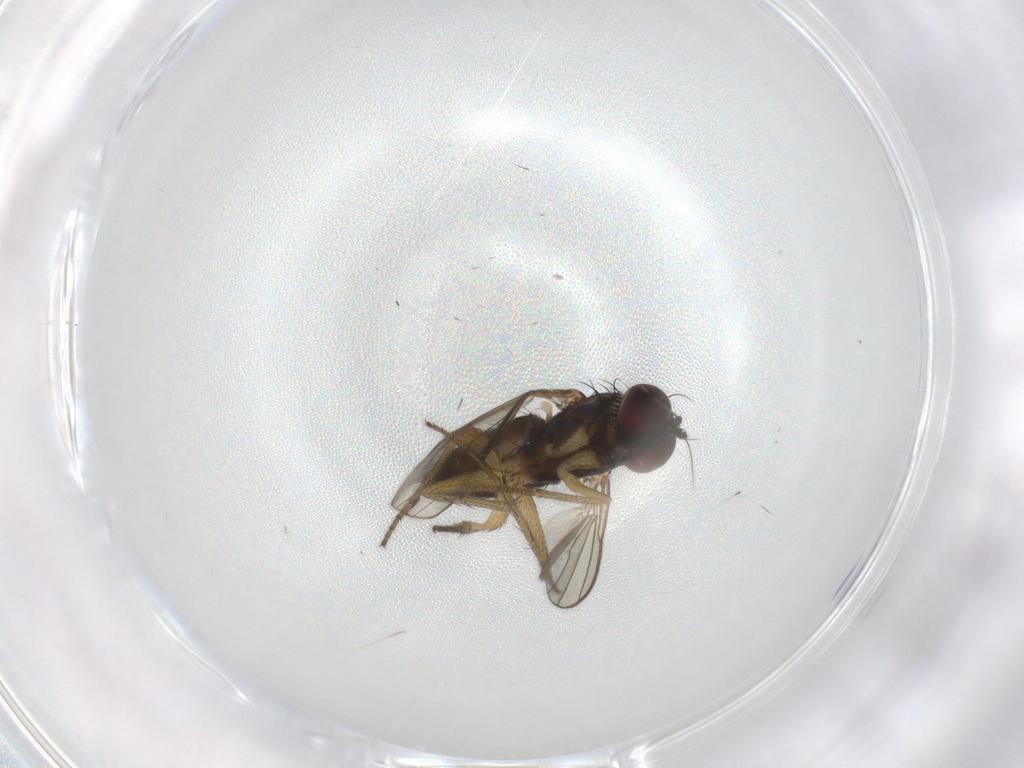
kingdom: Animalia
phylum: Arthropoda
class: Insecta
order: Diptera
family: Dolichopodidae
